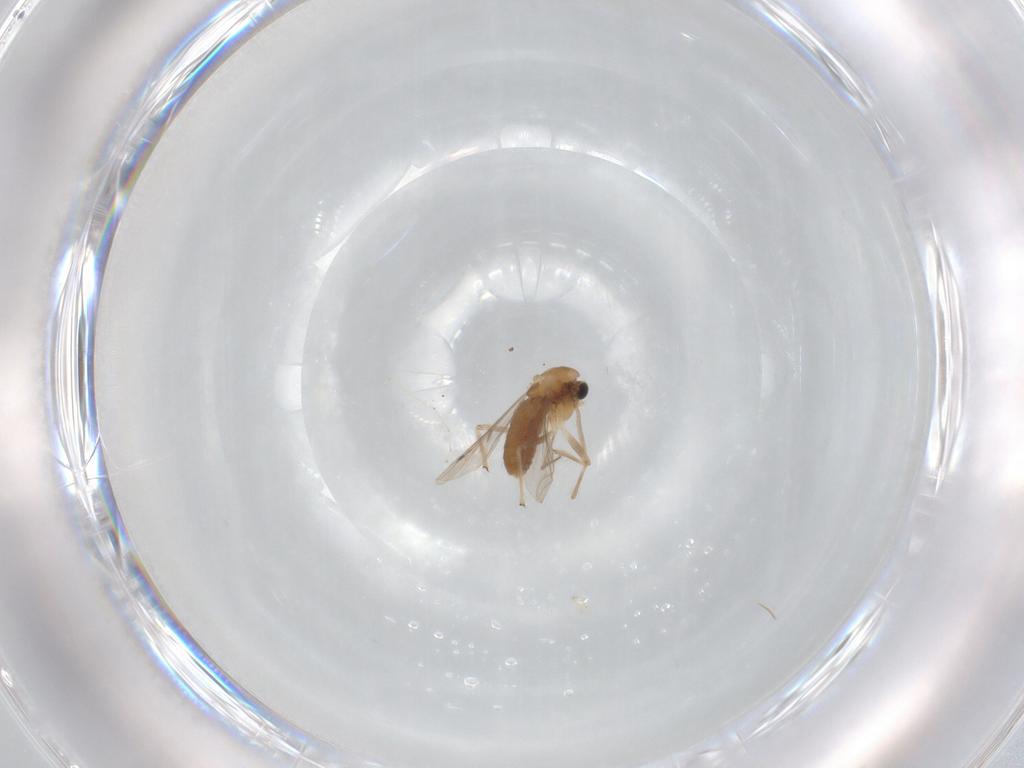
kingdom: Animalia
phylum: Arthropoda
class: Insecta
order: Diptera
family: Chironomidae
